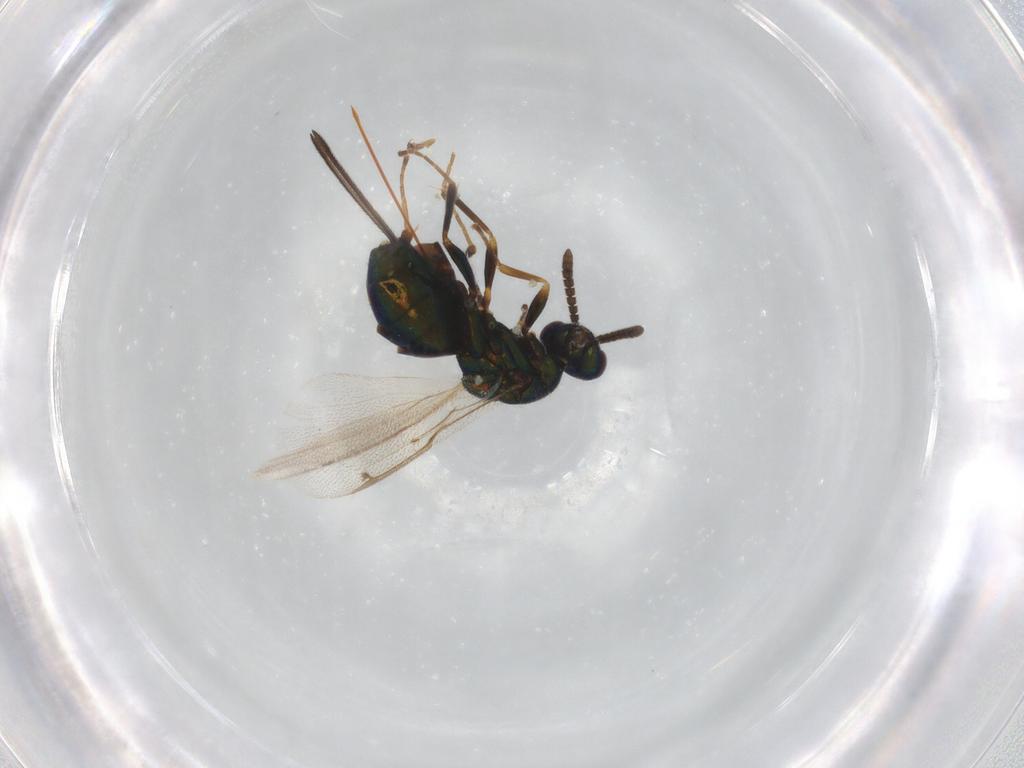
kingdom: Animalia
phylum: Arthropoda
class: Insecta
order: Hymenoptera
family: Torymidae
